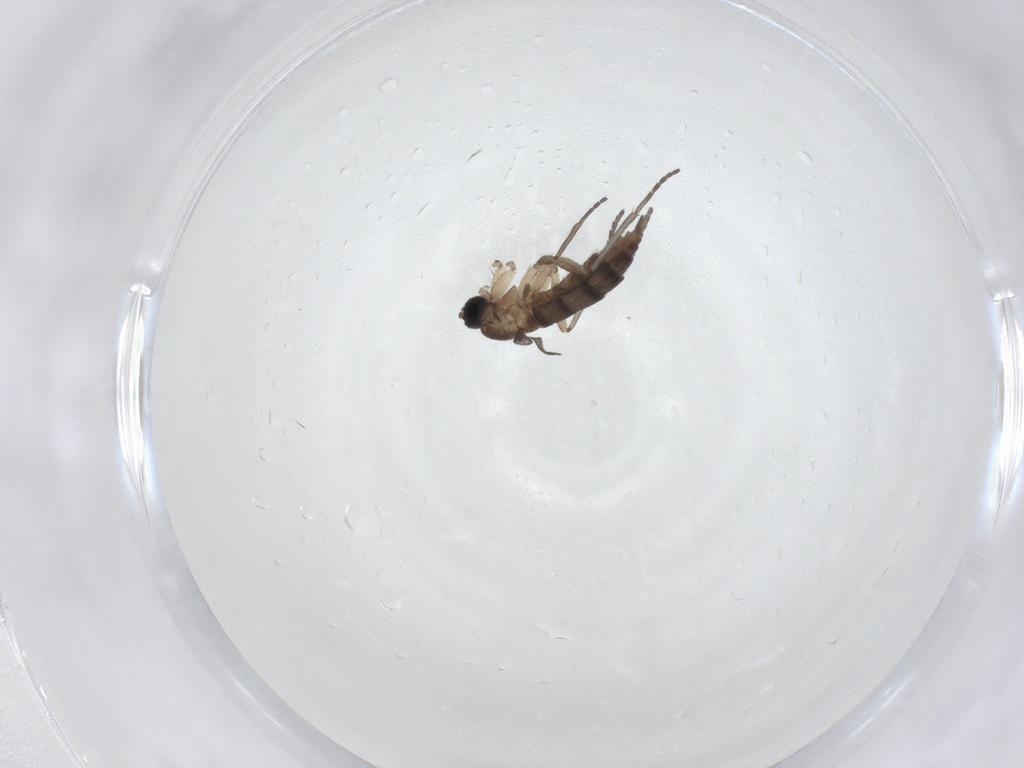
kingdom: Animalia
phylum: Arthropoda
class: Insecta
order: Diptera
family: Sciaridae
